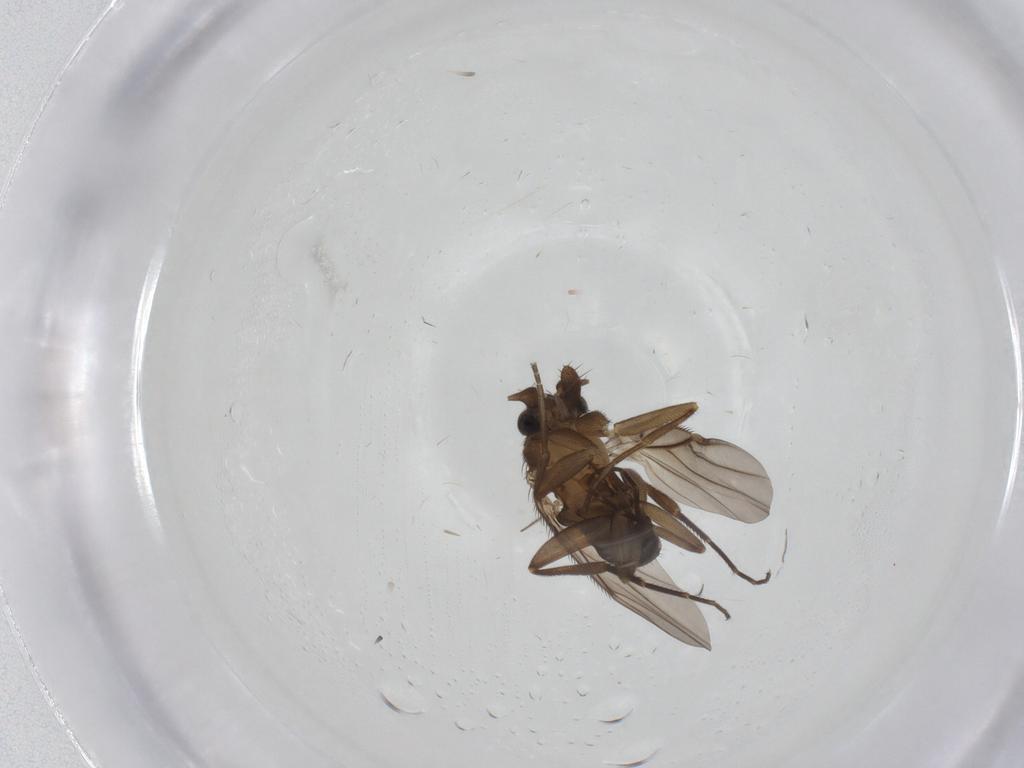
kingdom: Animalia
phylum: Arthropoda
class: Insecta
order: Diptera
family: Phoridae
